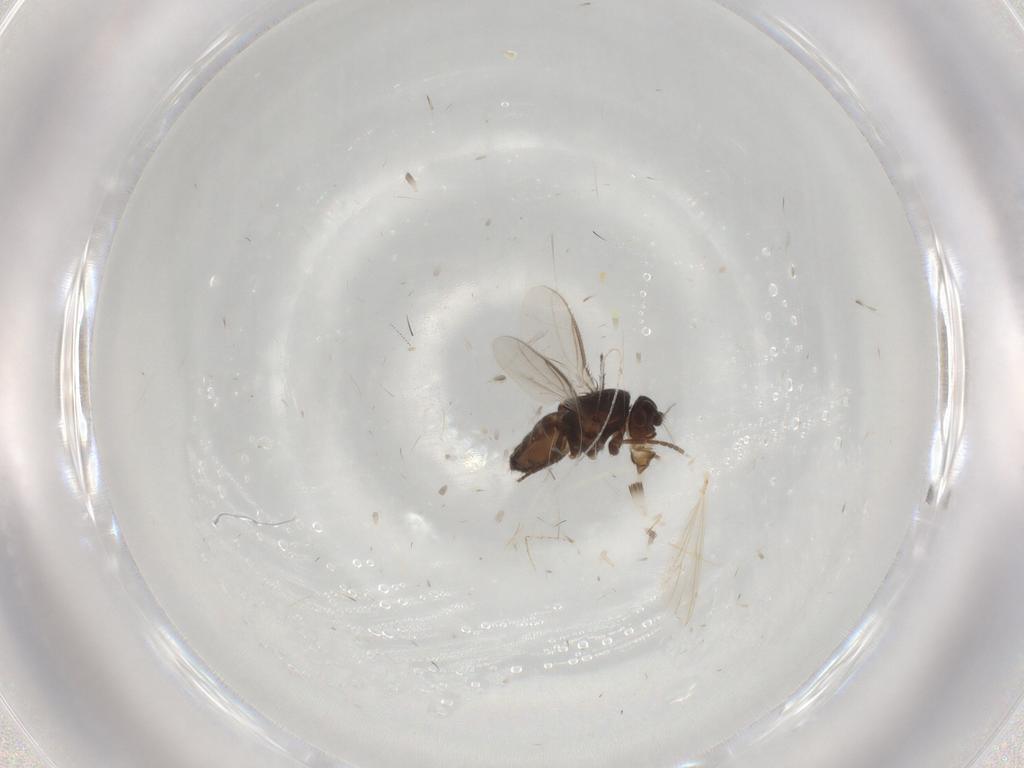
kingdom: Animalia
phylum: Arthropoda
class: Insecta
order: Diptera
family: Sphaeroceridae
